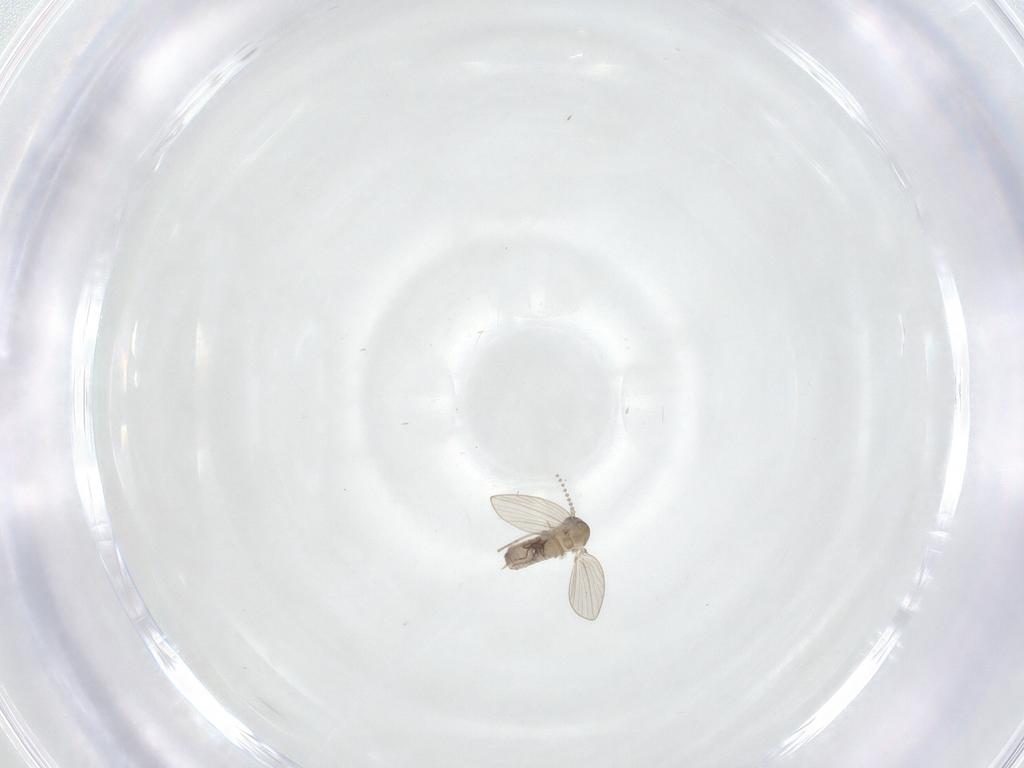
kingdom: Animalia
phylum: Arthropoda
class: Insecta
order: Diptera
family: Psychodidae
